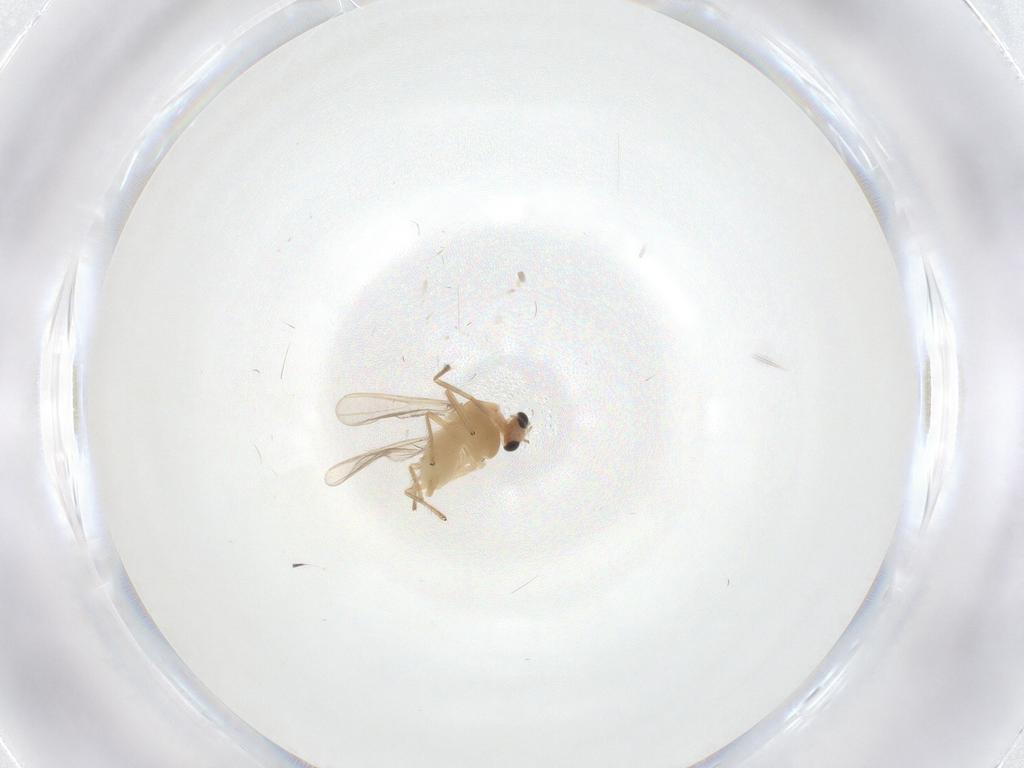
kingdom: Animalia
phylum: Arthropoda
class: Insecta
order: Diptera
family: Chironomidae
